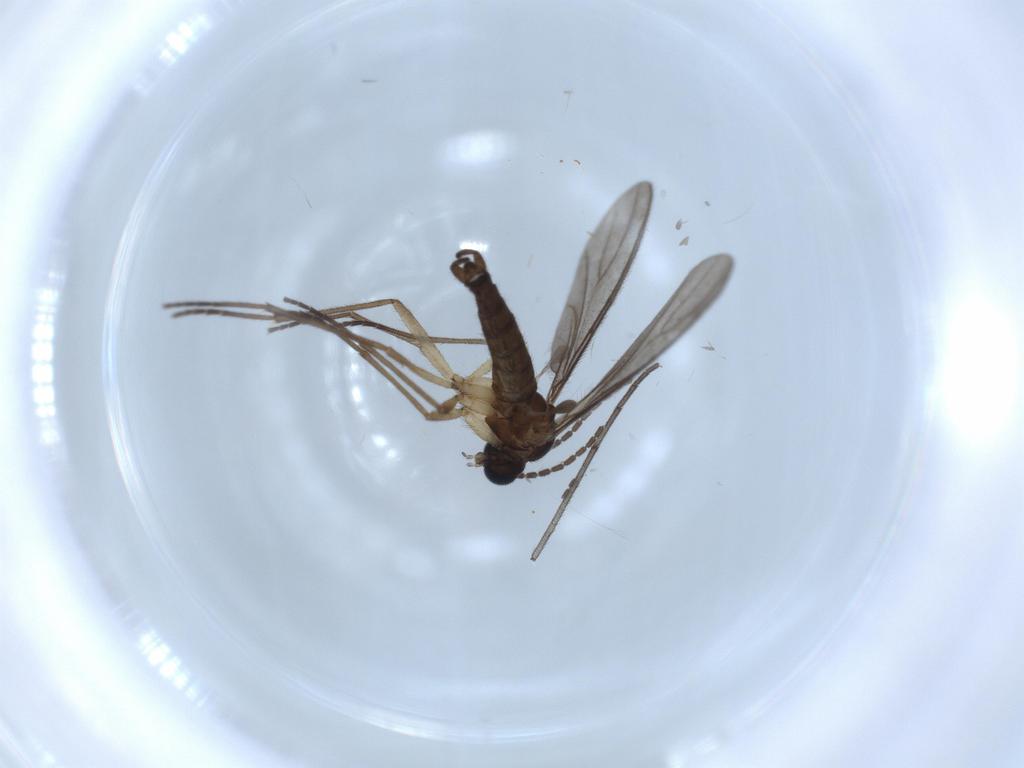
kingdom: Animalia
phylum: Arthropoda
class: Insecta
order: Diptera
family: Sciaridae
